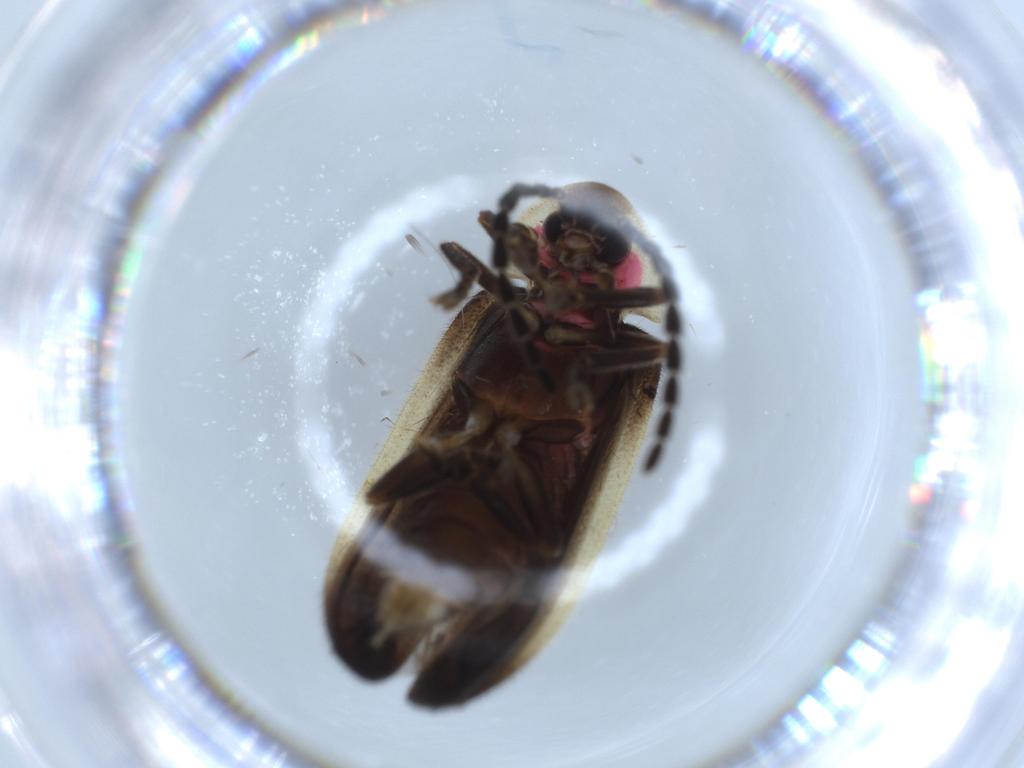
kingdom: Animalia
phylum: Arthropoda
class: Insecta
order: Coleoptera
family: Lampyridae
